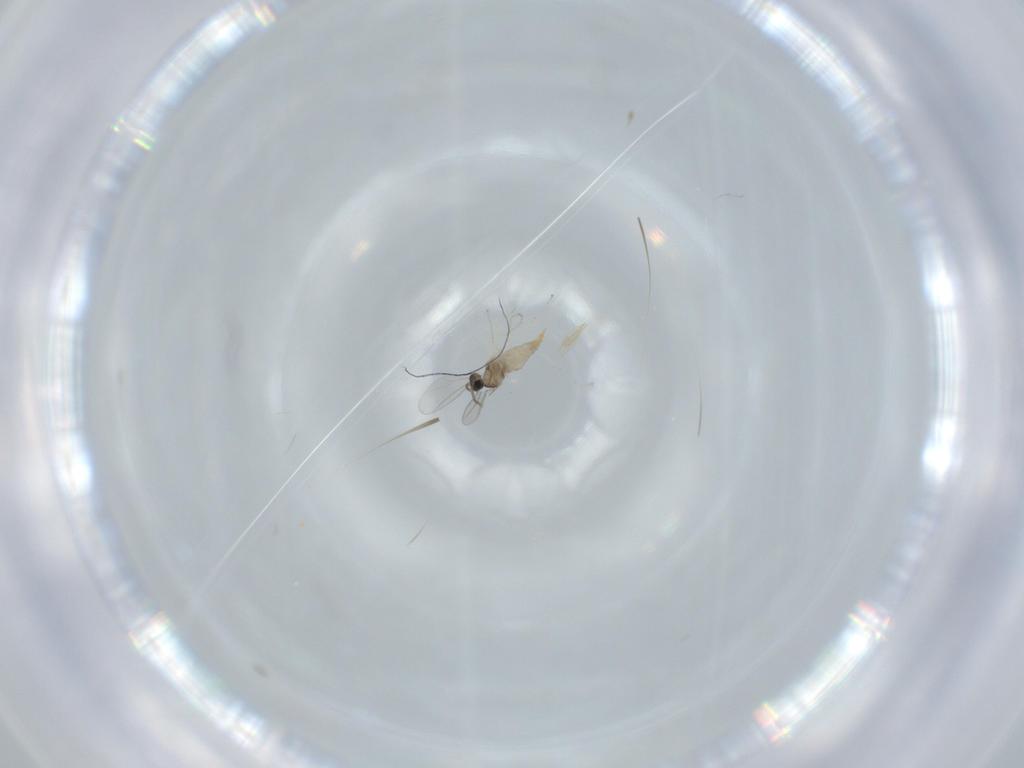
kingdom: Animalia
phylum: Arthropoda
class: Insecta
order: Diptera
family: Cecidomyiidae
